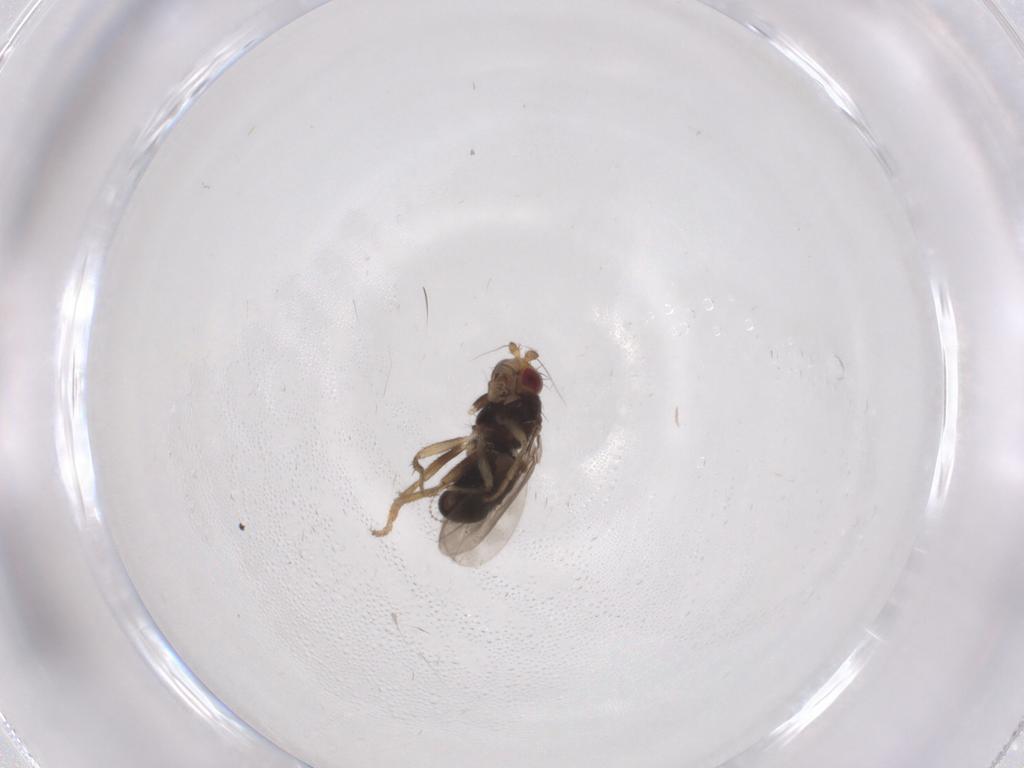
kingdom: Animalia
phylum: Arthropoda
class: Insecta
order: Diptera
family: Sphaeroceridae
